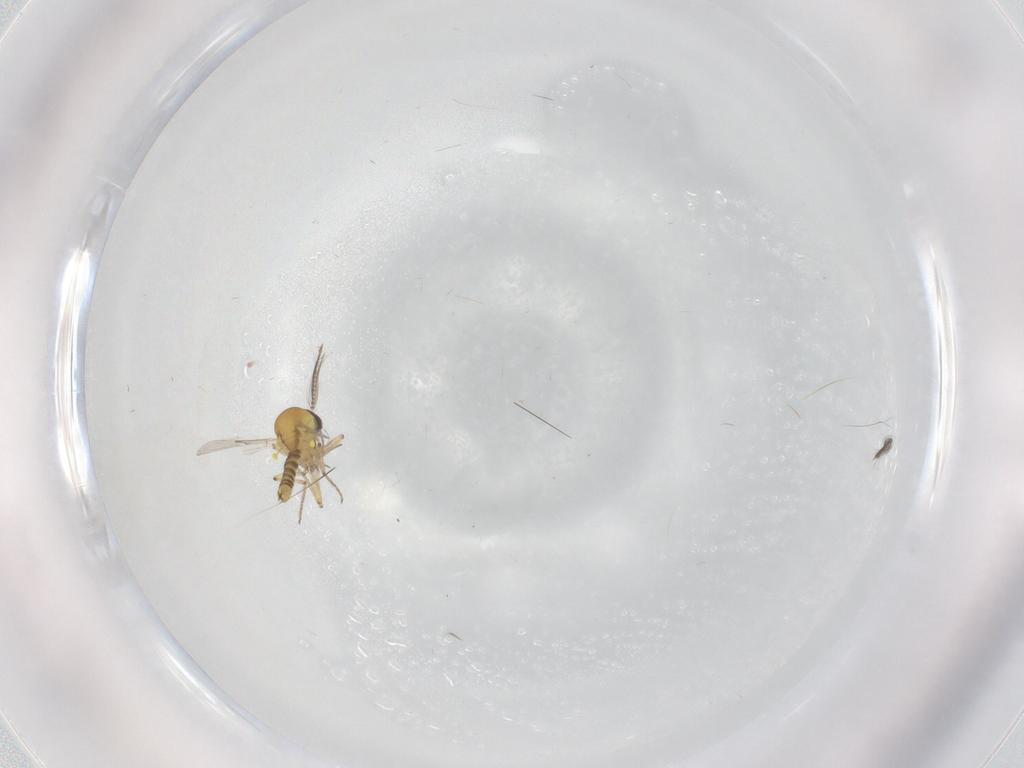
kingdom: Animalia
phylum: Arthropoda
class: Insecta
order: Diptera
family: Ceratopogonidae
